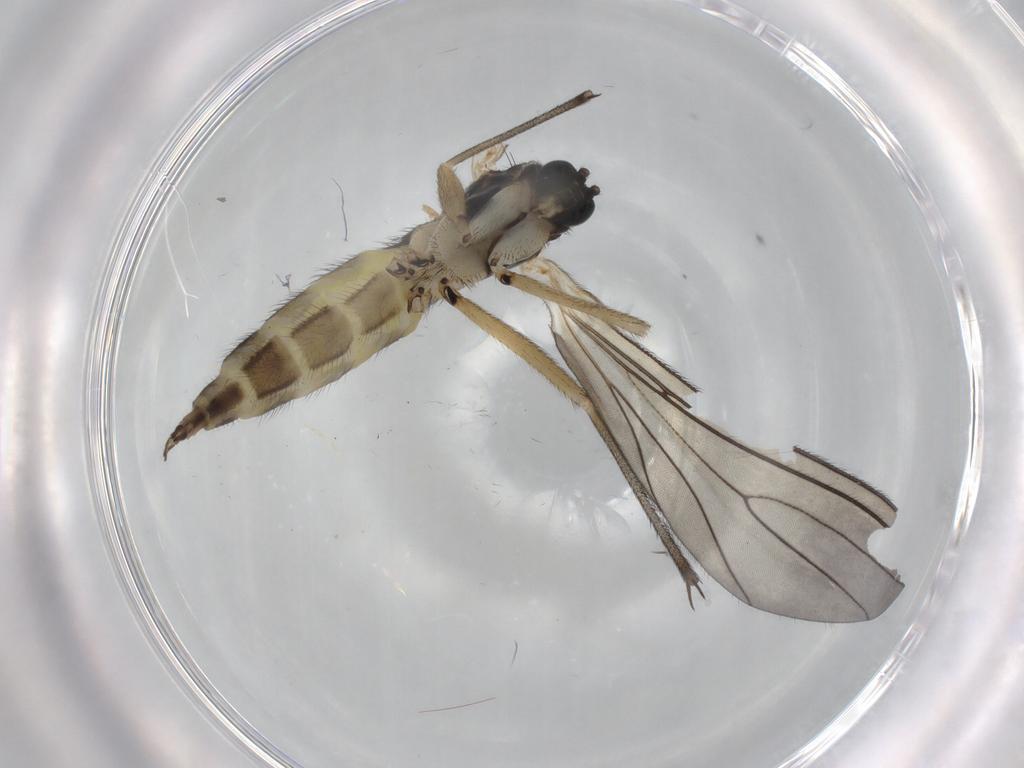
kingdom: Animalia
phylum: Arthropoda
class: Insecta
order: Diptera
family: Sciaridae
